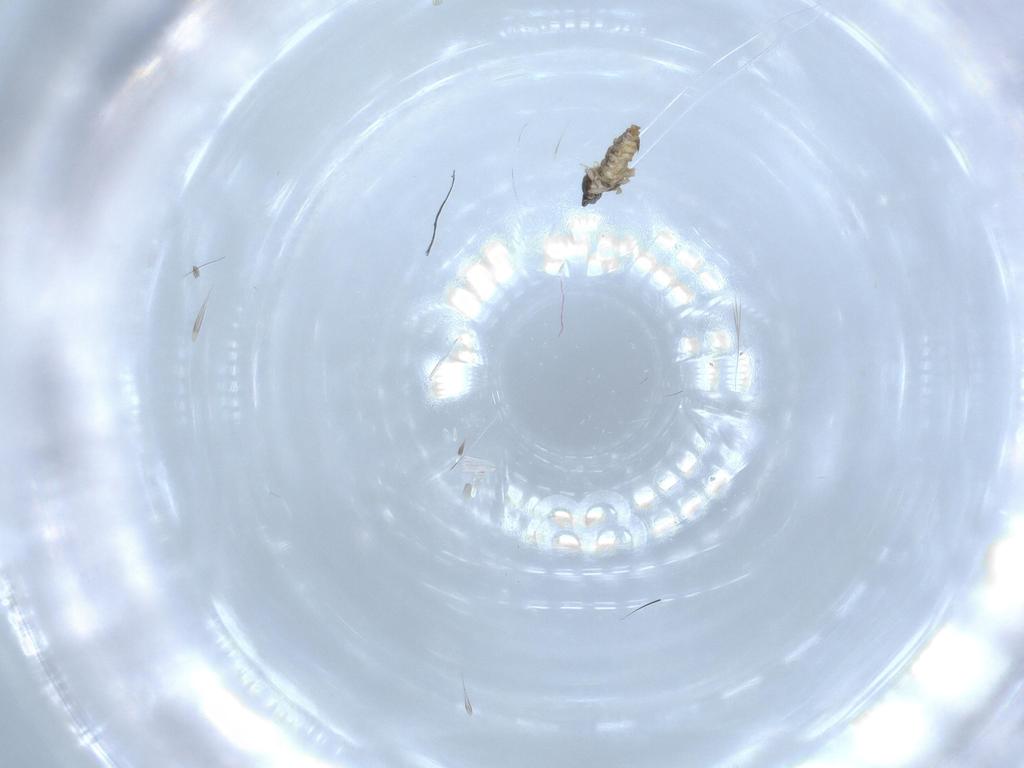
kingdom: Animalia
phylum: Arthropoda
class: Insecta
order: Diptera
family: Cecidomyiidae
